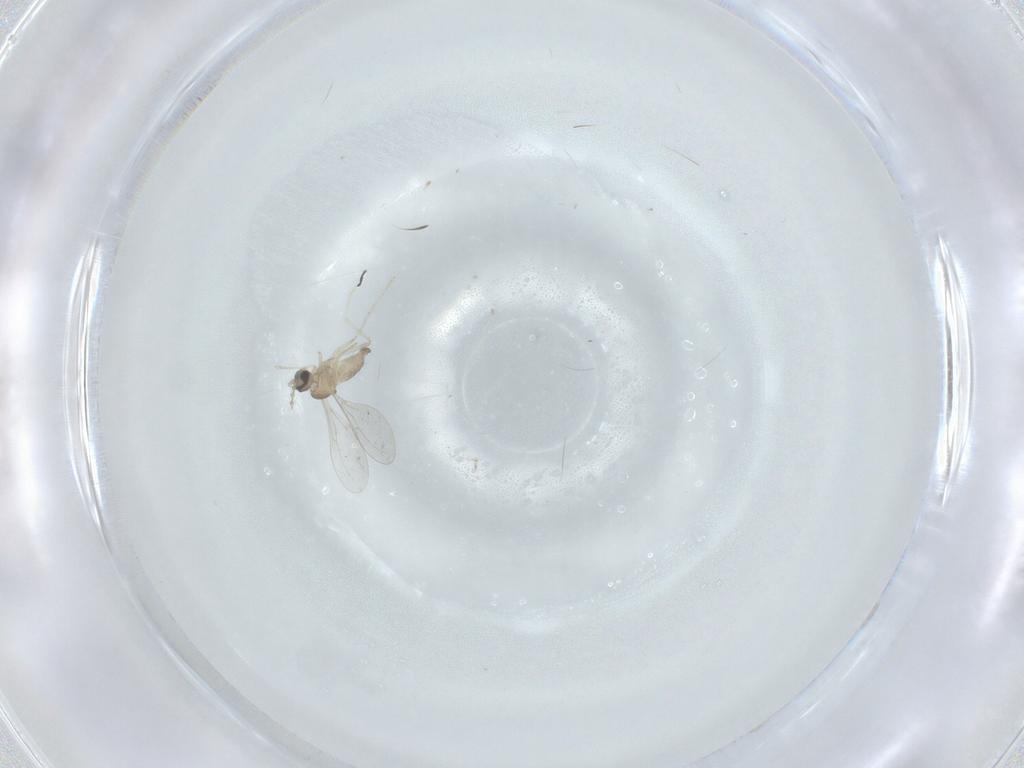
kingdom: Animalia
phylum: Arthropoda
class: Insecta
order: Diptera
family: Cecidomyiidae
